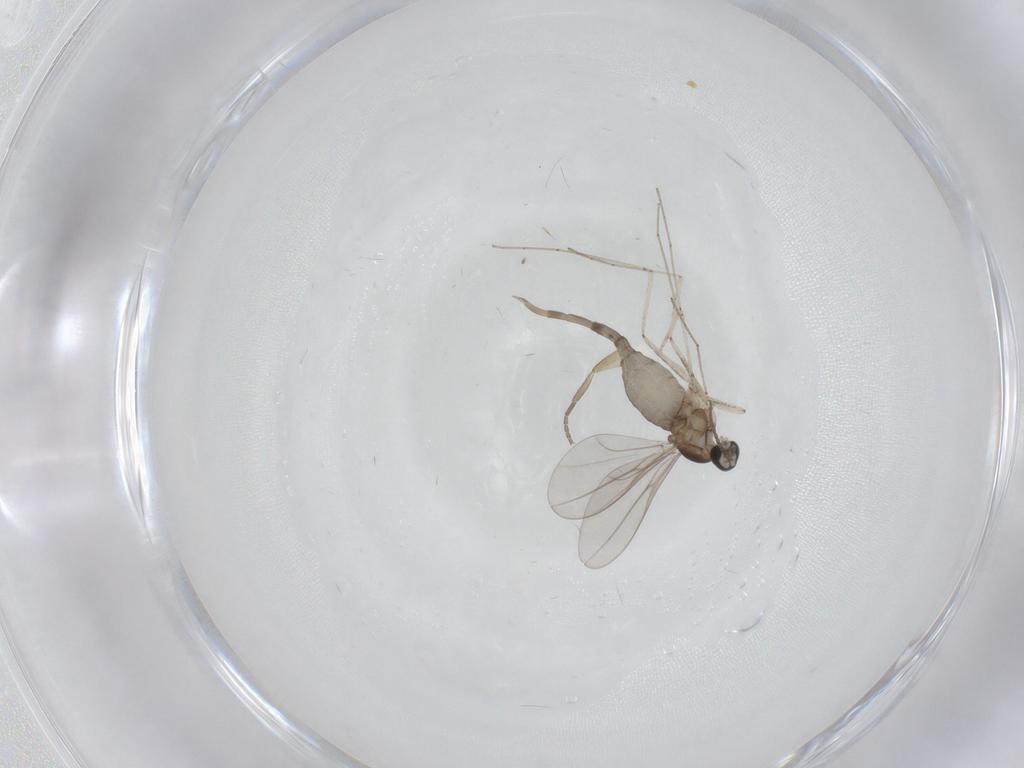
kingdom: Animalia
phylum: Arthropoda
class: Insecta
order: Diptera
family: Cecidomyiidae
